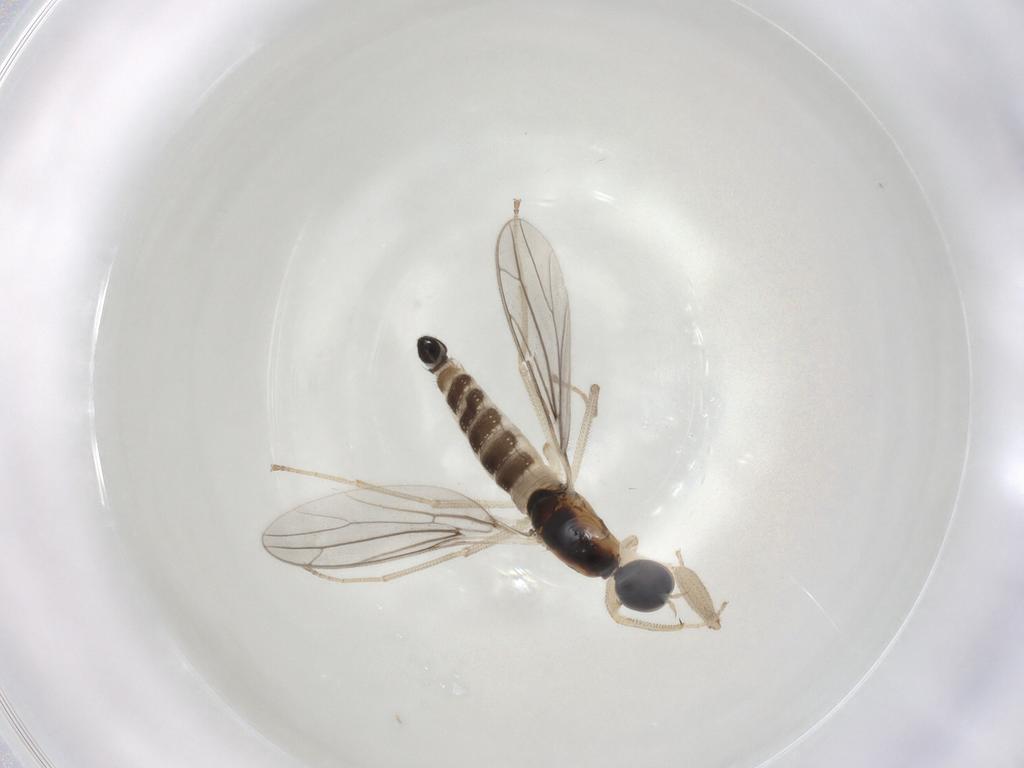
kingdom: Animalia
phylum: Arthropoda
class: Insecta
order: Diptera
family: Empididae
